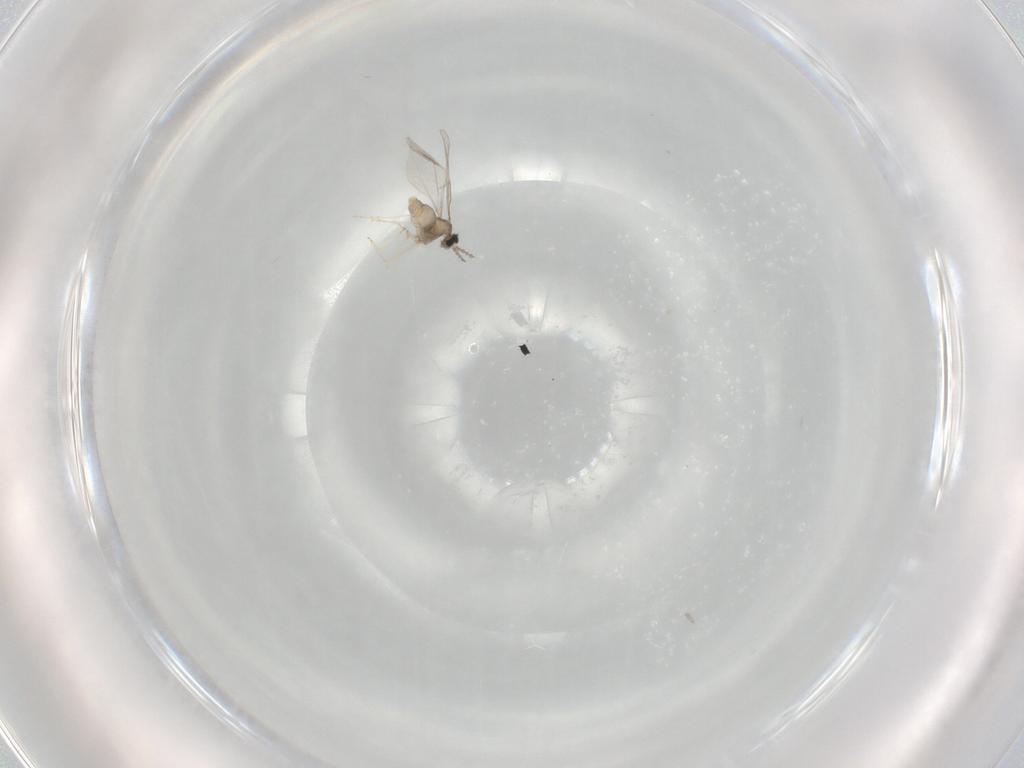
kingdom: Animalia
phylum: Arthropoda
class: Insecta
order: Diptera
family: Cecidomyiidae
